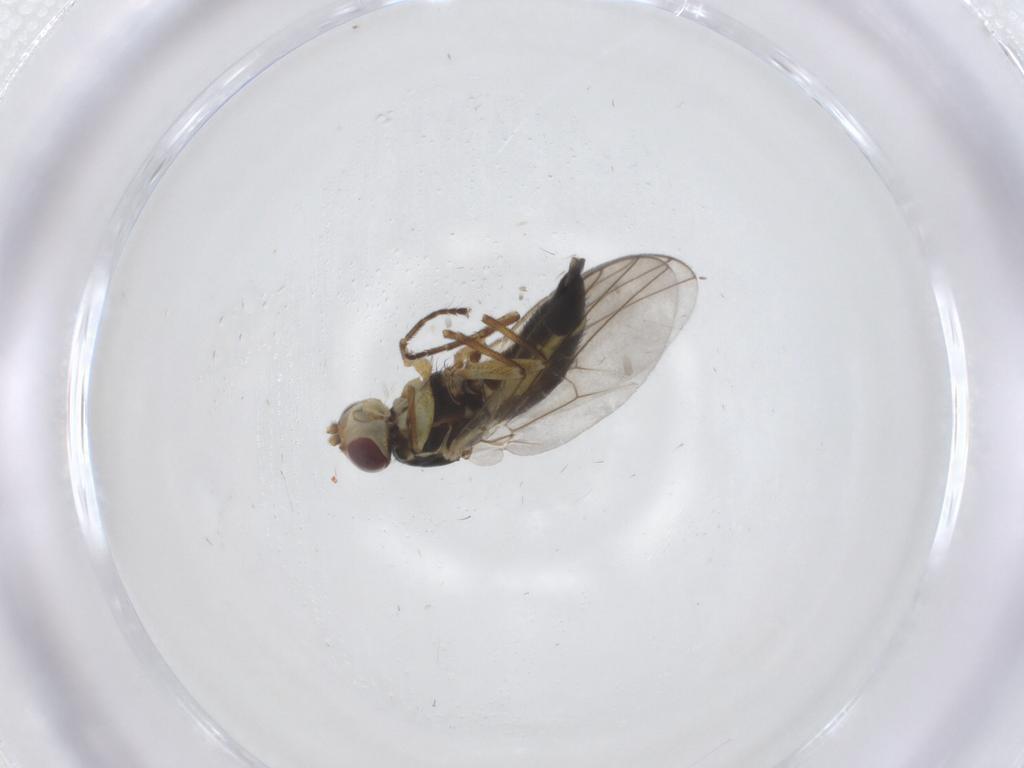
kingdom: Animalia
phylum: Arthropoda
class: Insecta
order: Diptera
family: Agromyzidae
